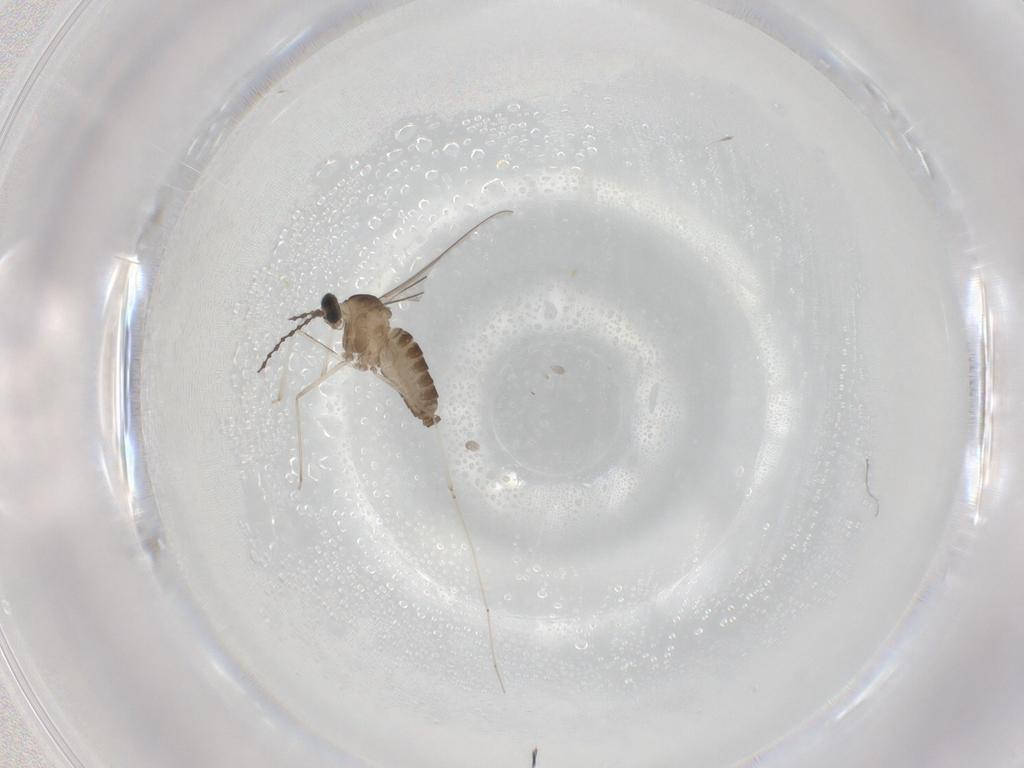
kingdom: Animalia
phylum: Arthropoda
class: Insecta
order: Diptera
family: Cecidomyiidae
